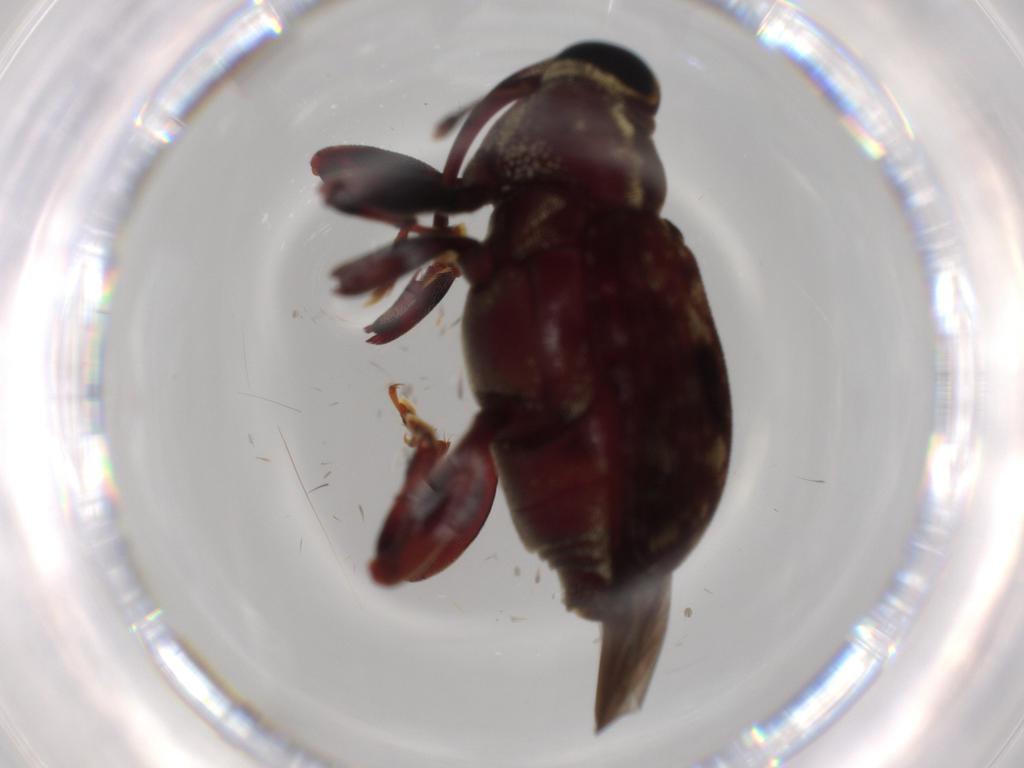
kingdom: Animalia
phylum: Arthropoda
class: Insecta
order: Coleoptera
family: Curculionidae
